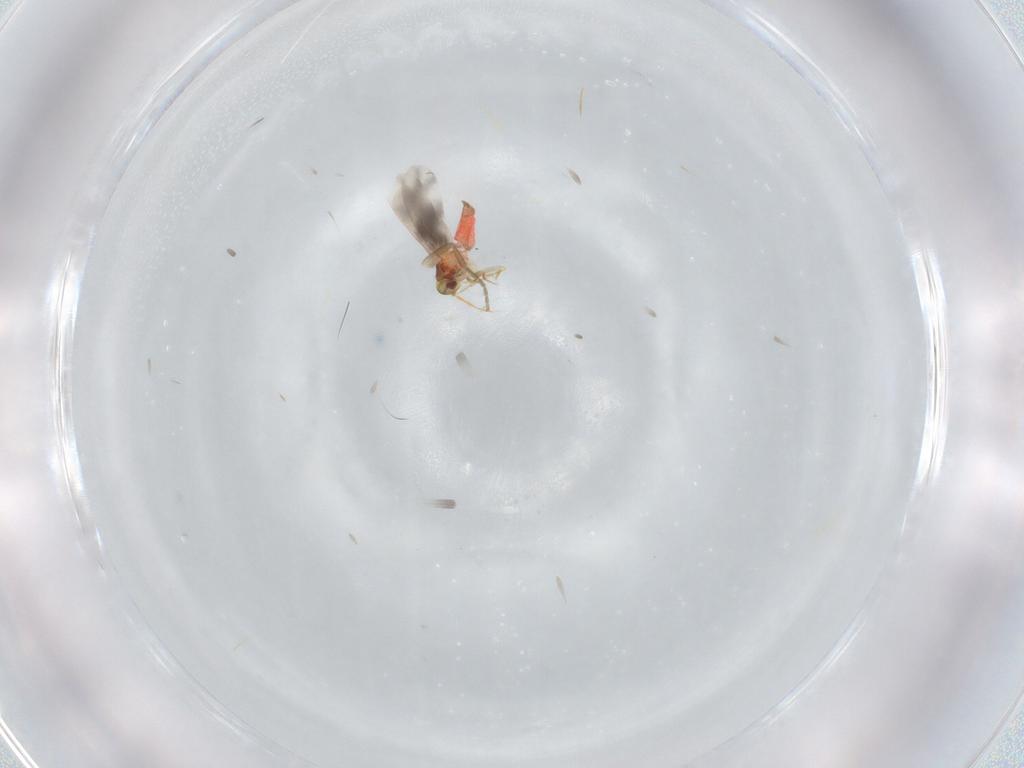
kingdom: Animalia
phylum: Arthropoda
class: Insecta
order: Hemiptera
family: Aleyrodidae
